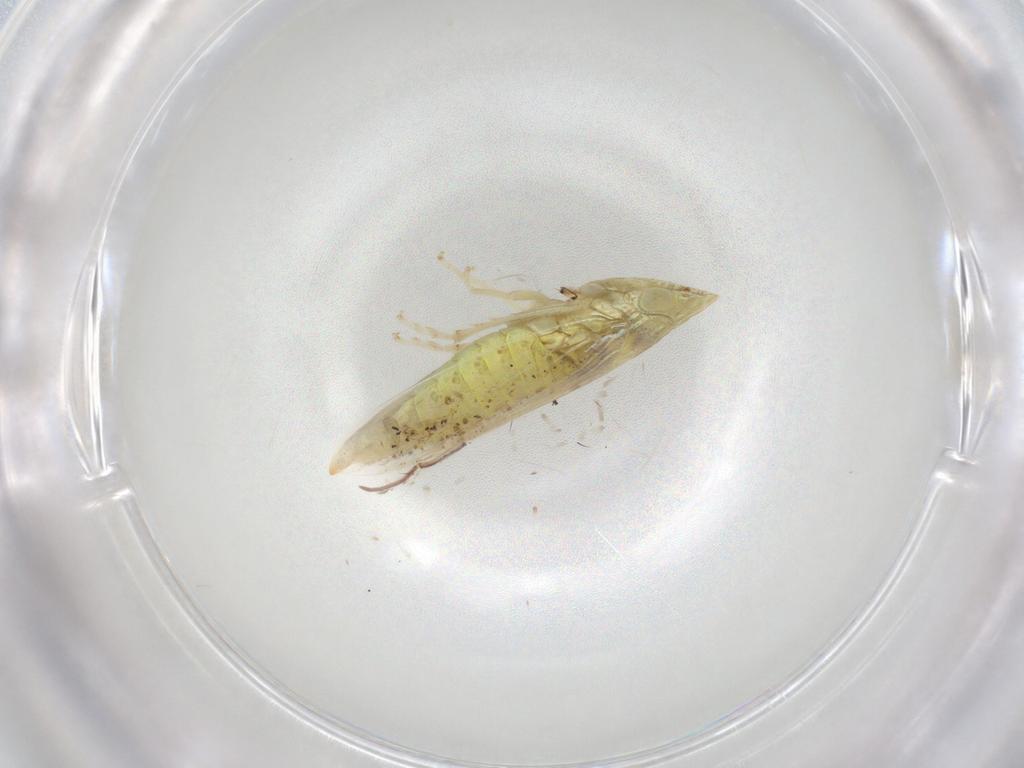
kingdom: Animalia
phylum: Arthropoda
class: Insecta
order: Hemiptera
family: Cicadellidae
